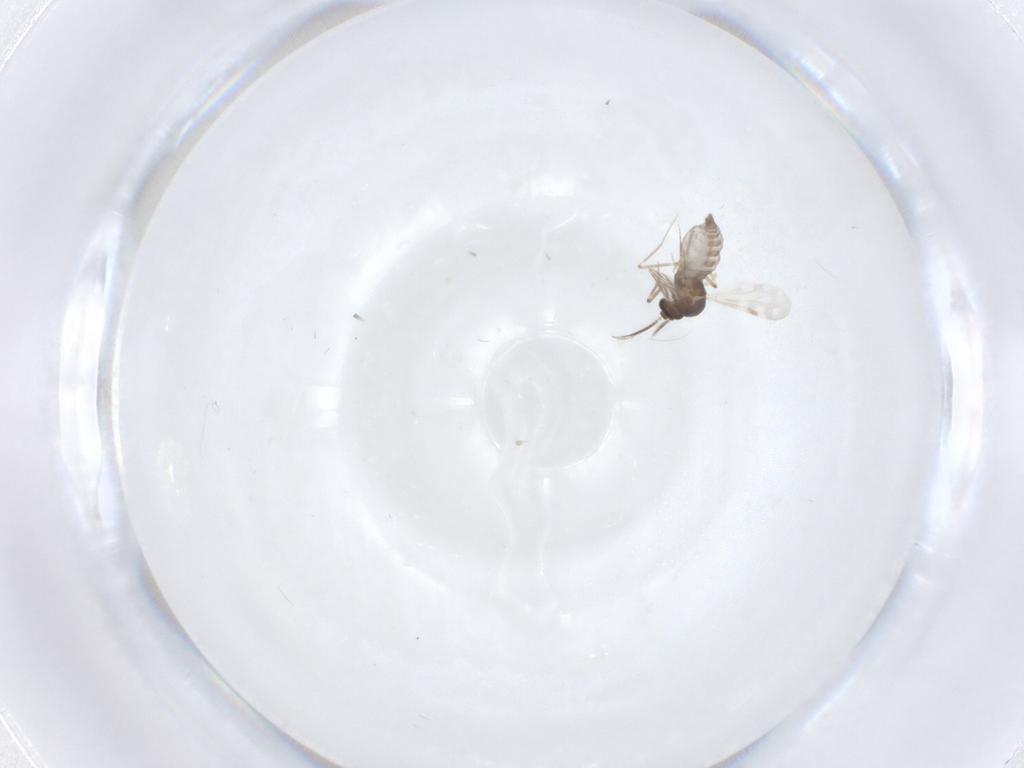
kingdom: Animalia
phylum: Arthropoda
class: Insecta
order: Diptera
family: Ceratopogonidae
